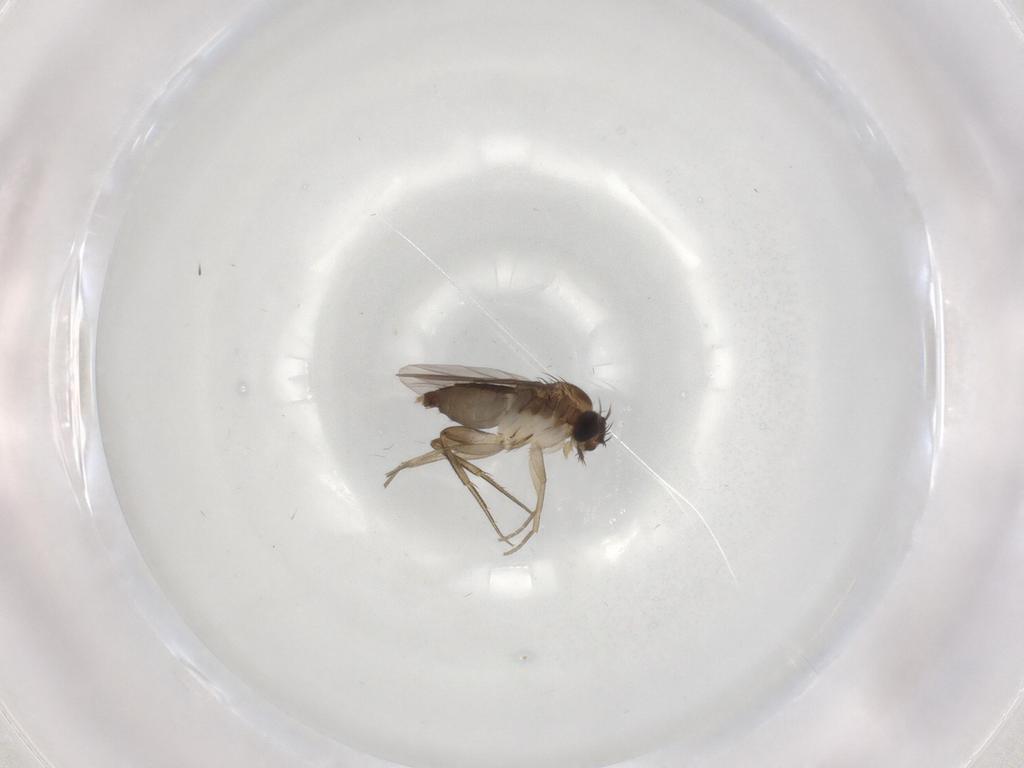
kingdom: Animalia
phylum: Arthropoda
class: Insecta
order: Diptera
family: Phoridae
